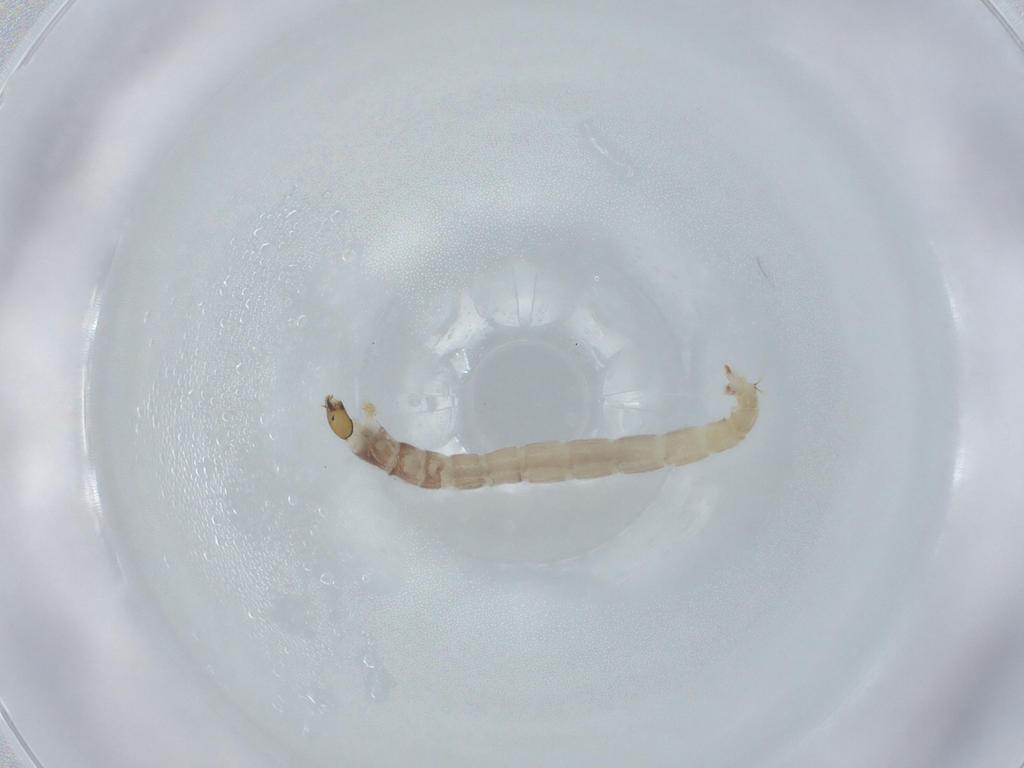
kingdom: Animalia
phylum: Arthropoda
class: Insecta
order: Diptera
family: Chironomidae
